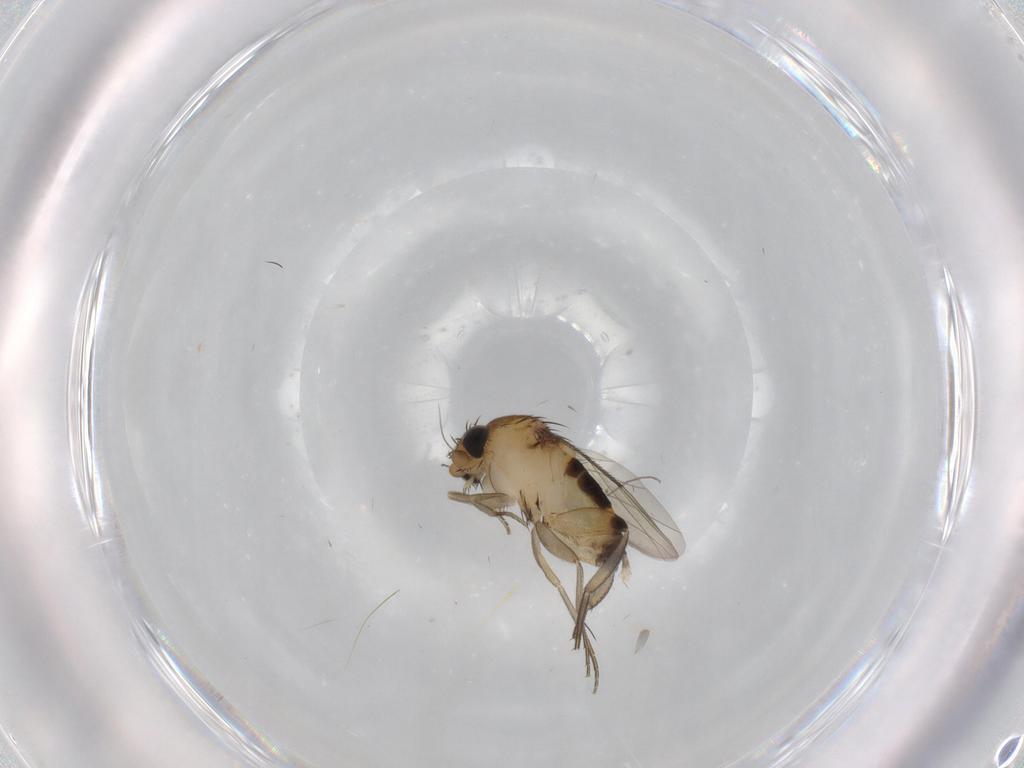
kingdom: Animalia
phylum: Arthropoda
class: Insecta
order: Diptera
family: Phoridae
